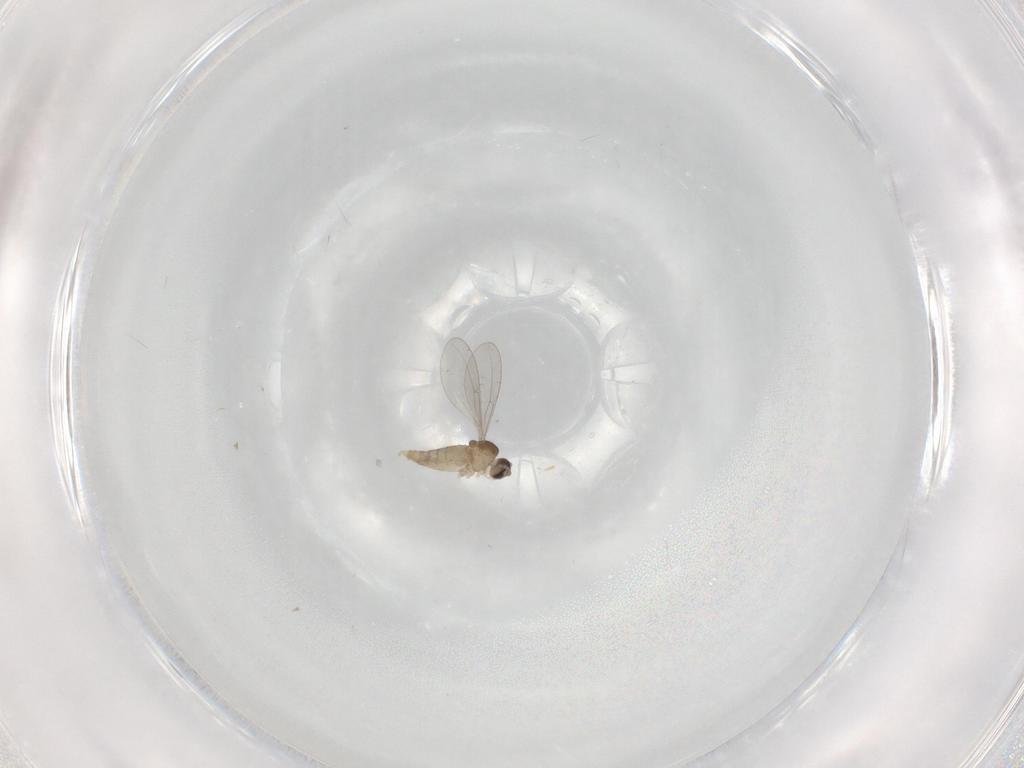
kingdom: Animalia
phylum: Arthropoda
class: Insecta
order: Diptera
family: Cecidomyiidae
